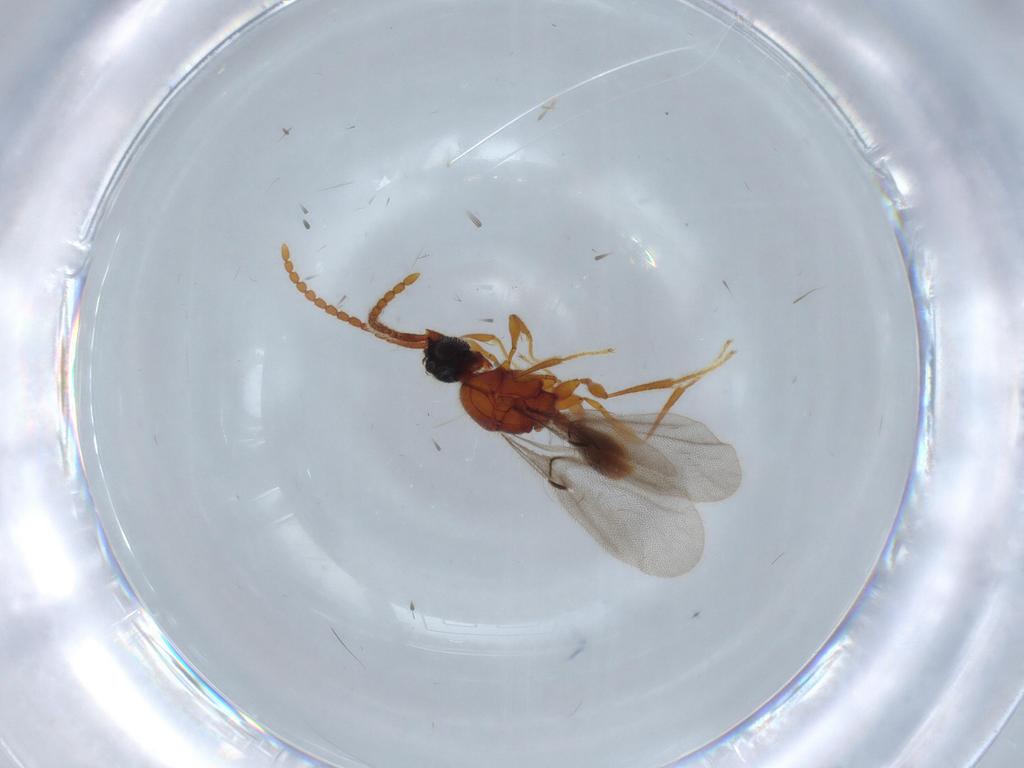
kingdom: Animalia
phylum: Arthropoda
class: Insecta
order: Hymenoptera
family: Diapriidae
